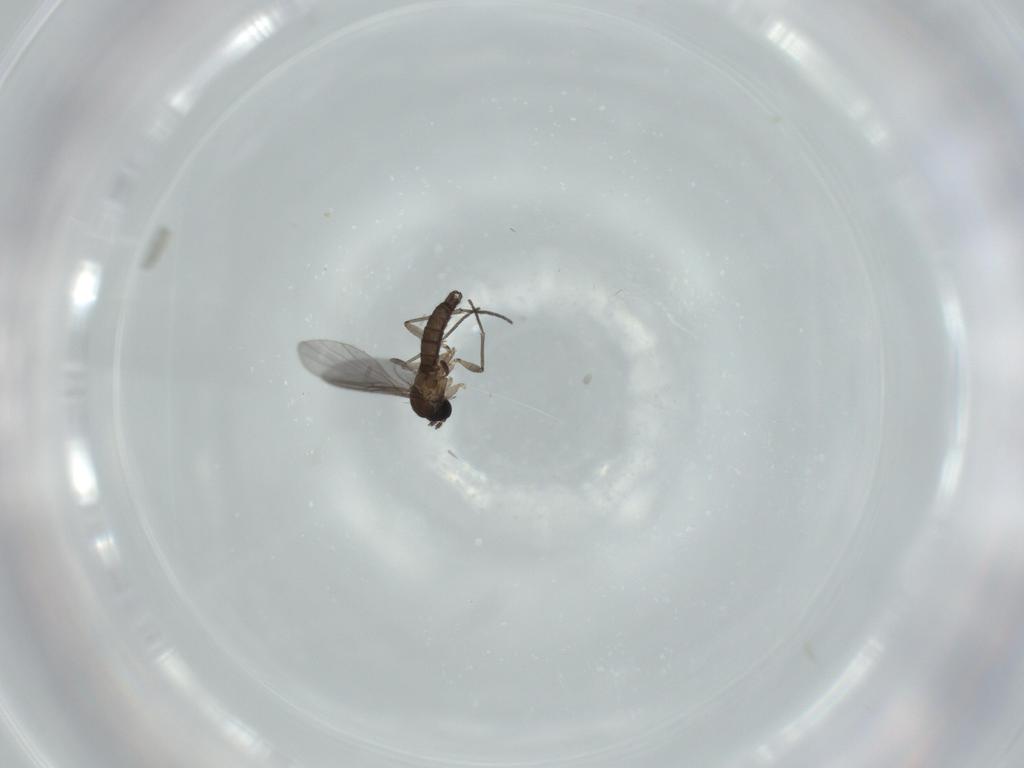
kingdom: Animalia
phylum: Arthropoda
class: Insecta
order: Diptera
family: Sciaridae
